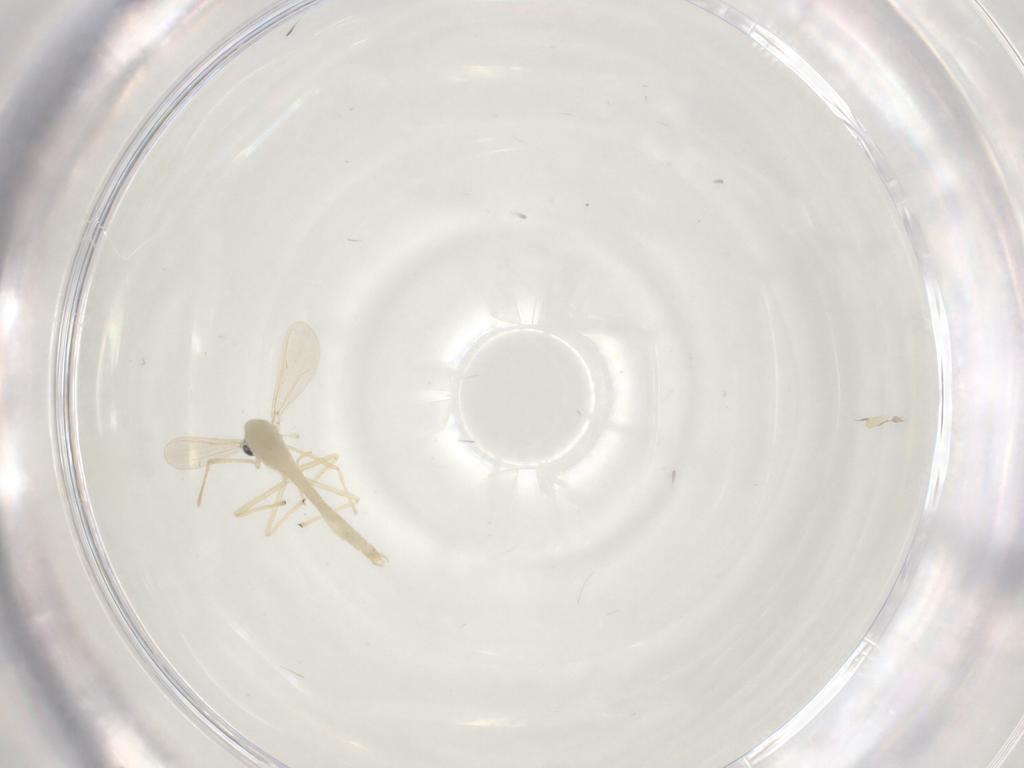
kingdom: Animalia
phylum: Arthropoda
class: Insecta
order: Diptera
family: Chironomidae
